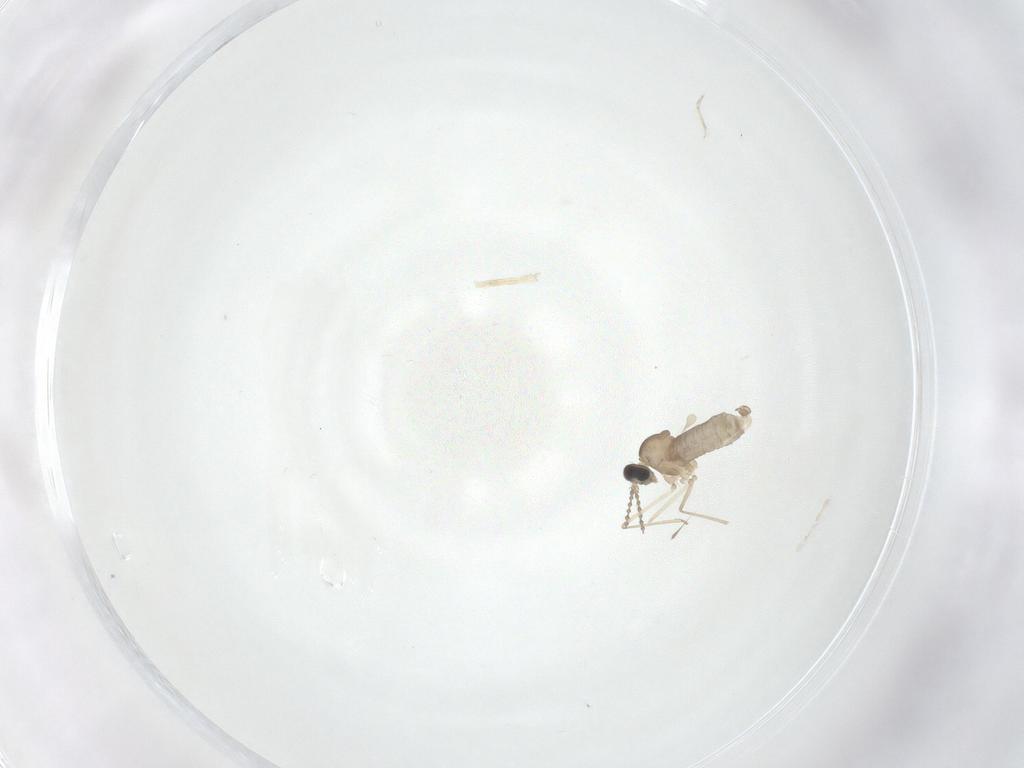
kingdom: Animalia
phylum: Arthropoda
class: Insecta
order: Diptera
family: Cecidomyiidae
